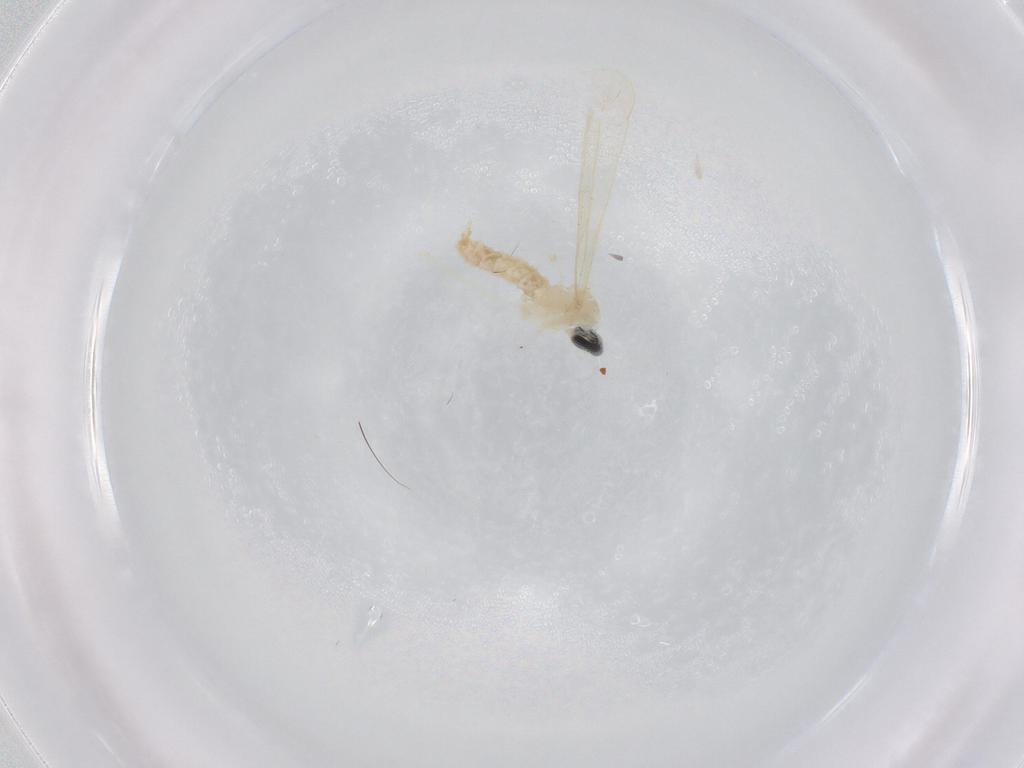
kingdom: Animalia
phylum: Arthropoda
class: Insecta
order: Diptera
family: Cecidomyiidae
